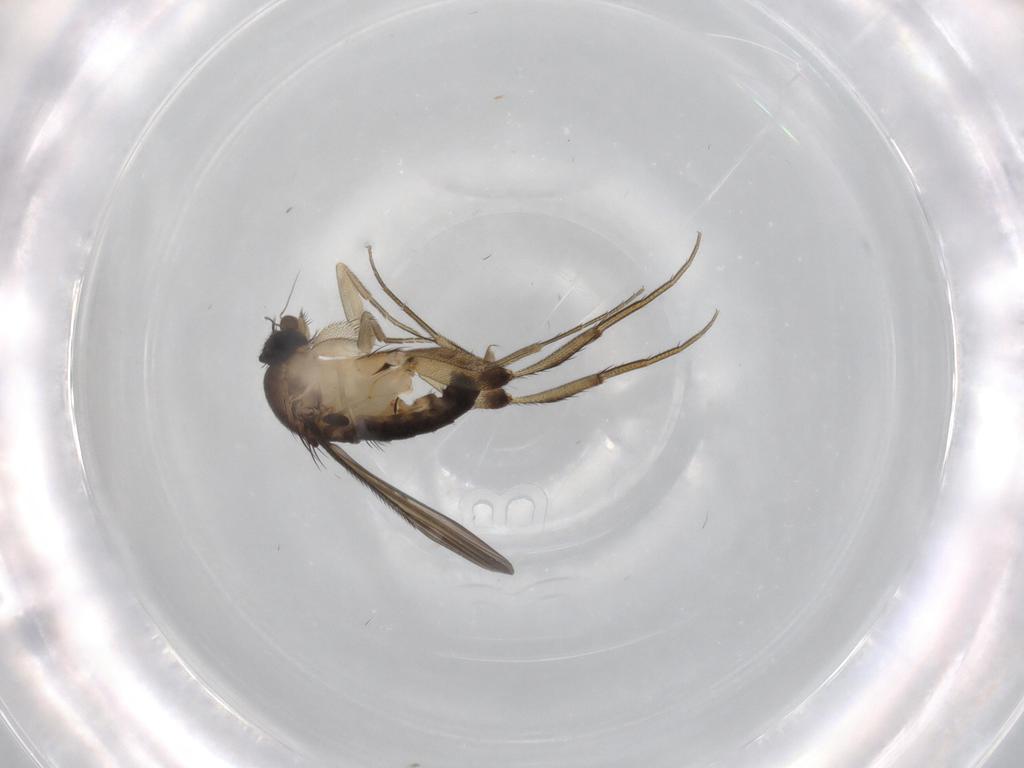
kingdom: Animalia
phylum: Arthropoda
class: Insecta
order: Diptera
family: Phoridae
